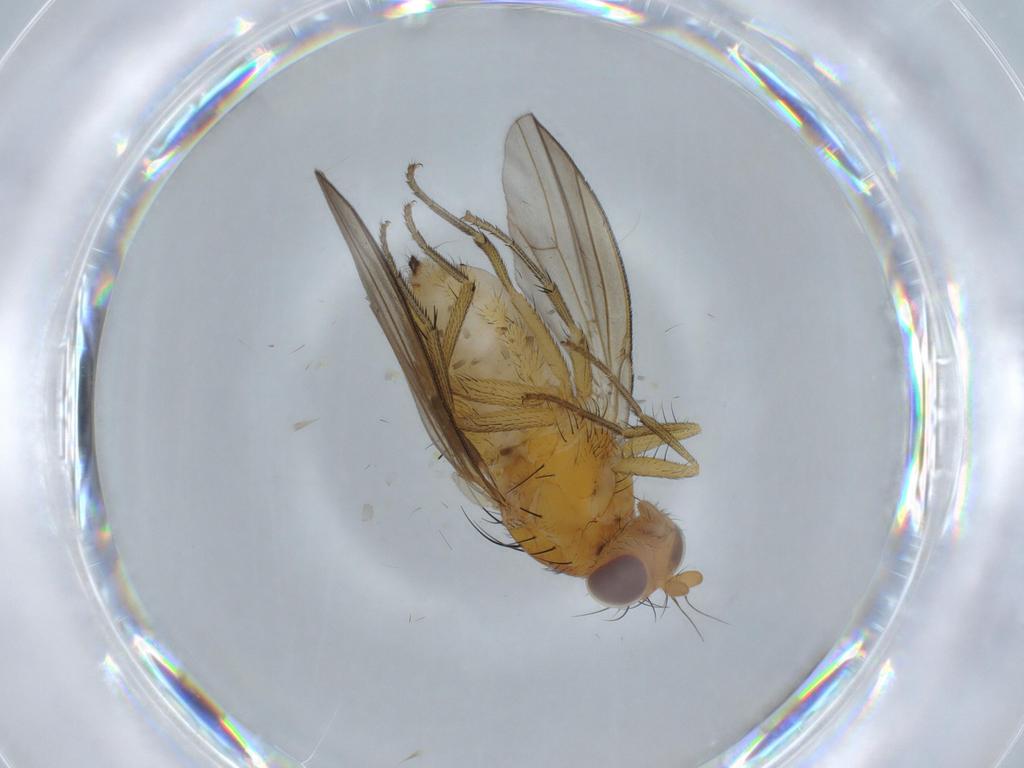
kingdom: Animalia
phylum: Arthropoda
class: Insecta
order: Diptera
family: Mycetophilidae
